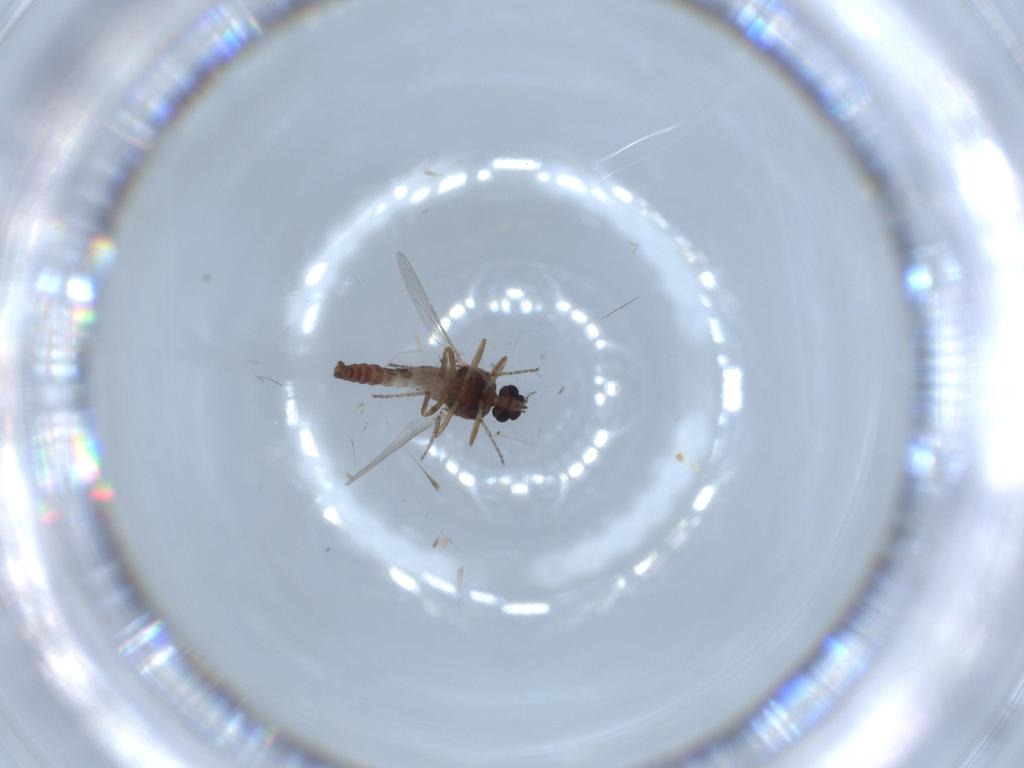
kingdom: Animalia
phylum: Arthropoda
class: Insecta
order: Diptera
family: Ceratopogonidae
